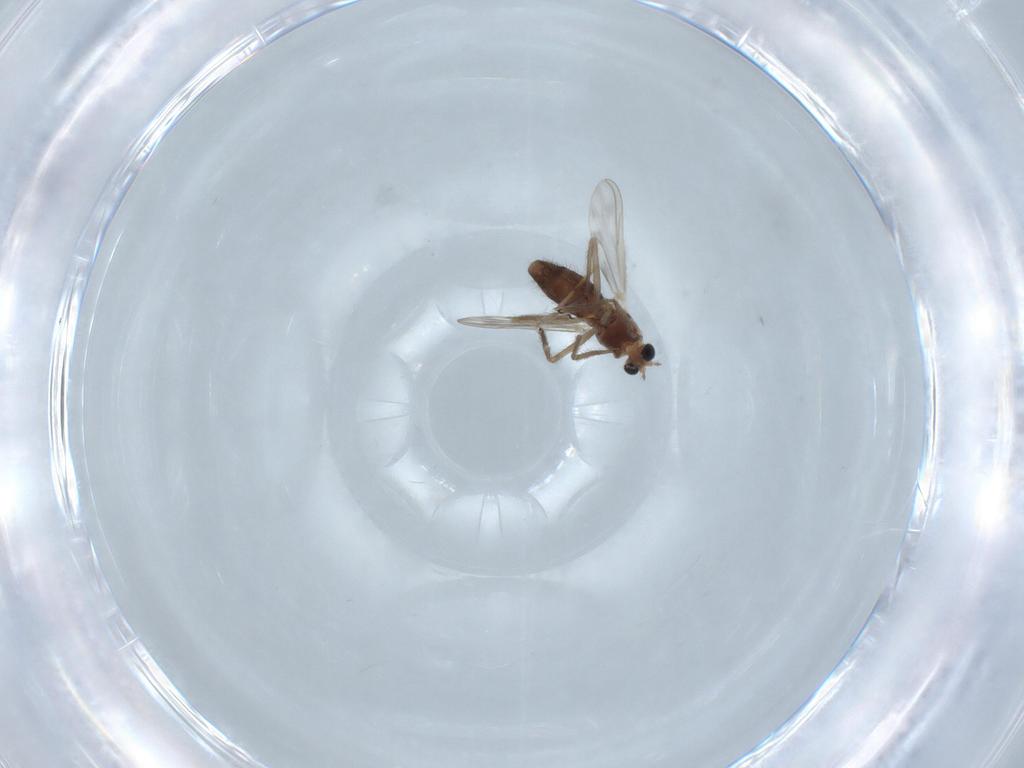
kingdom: Animalia
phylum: Arthropoda
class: Insecta
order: Diptera
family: Chironomidae
